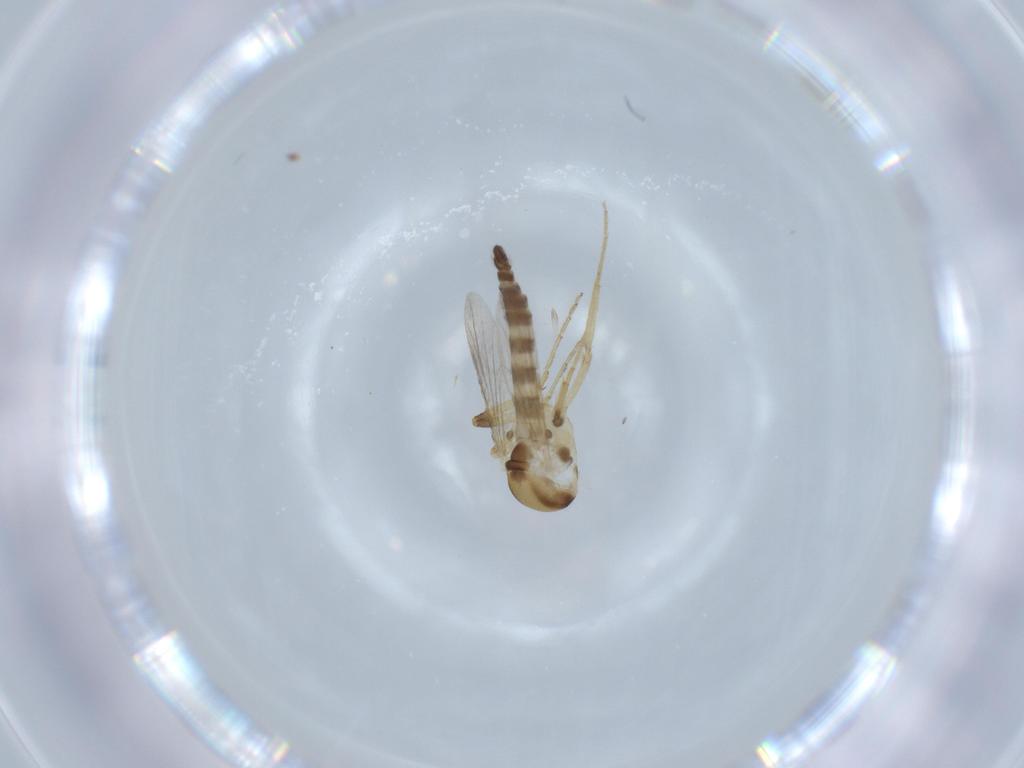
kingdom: Animalia
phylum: Arthropoda
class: Insecta
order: Diptera
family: Ceratopogonidae
